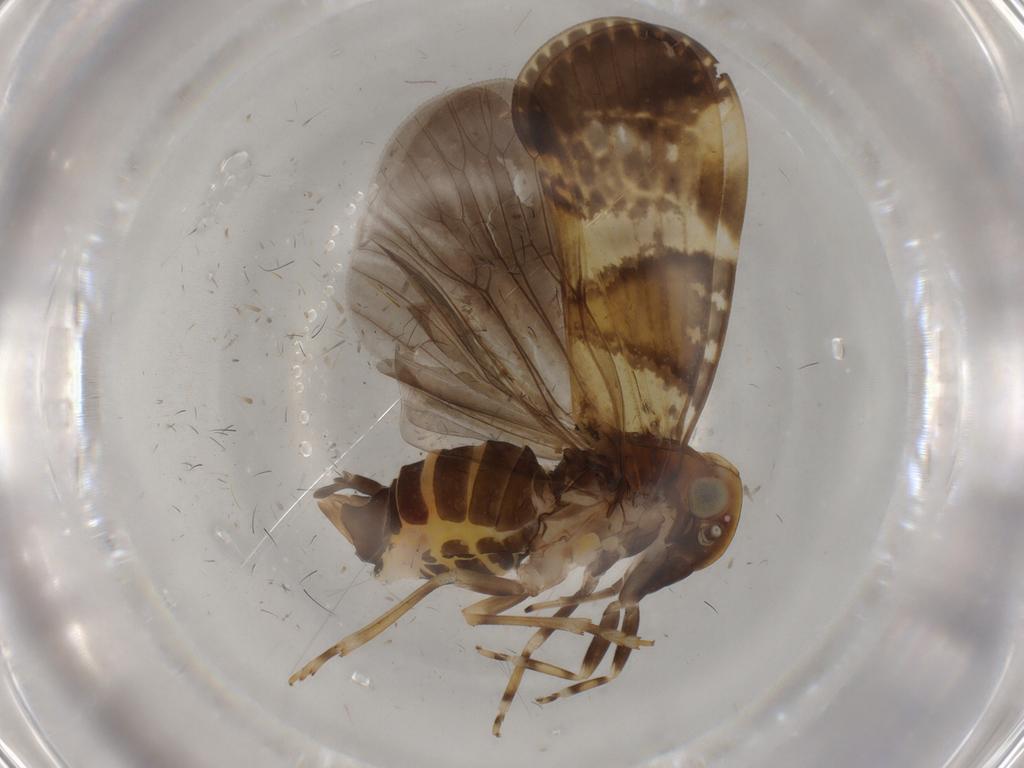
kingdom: Animalia
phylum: Arthropoda
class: Insecta
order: Hemiptera
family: Cixiidae
